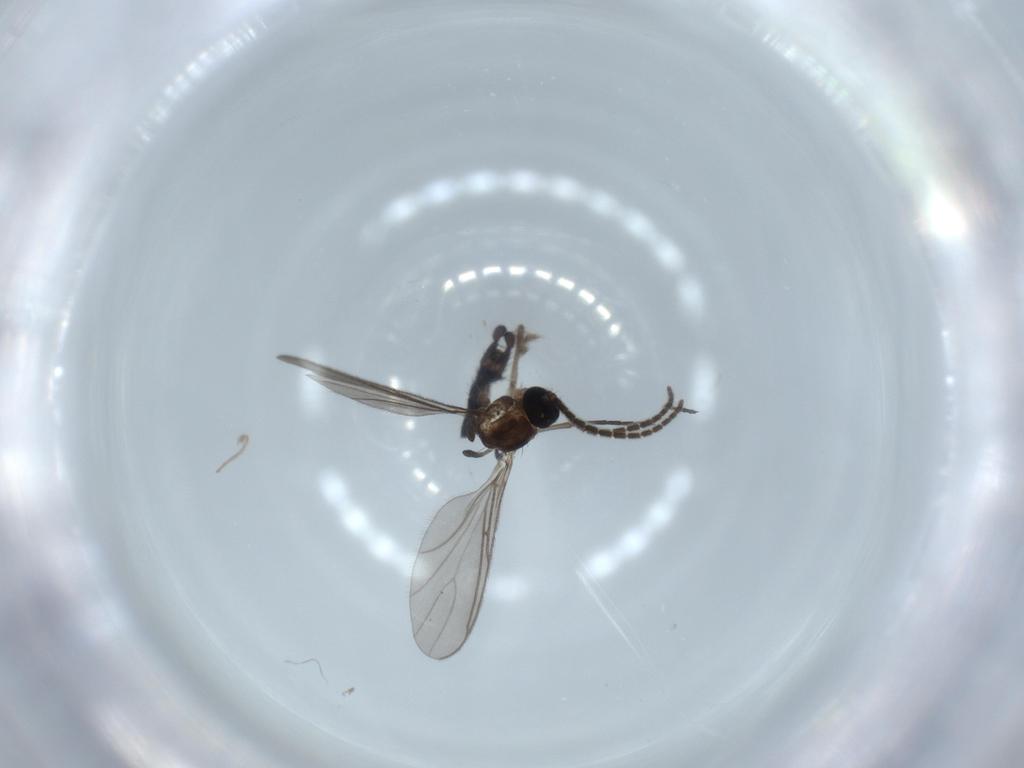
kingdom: Animalia
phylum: Arthropoda
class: Insecta
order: Diptera
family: Sciaridae
